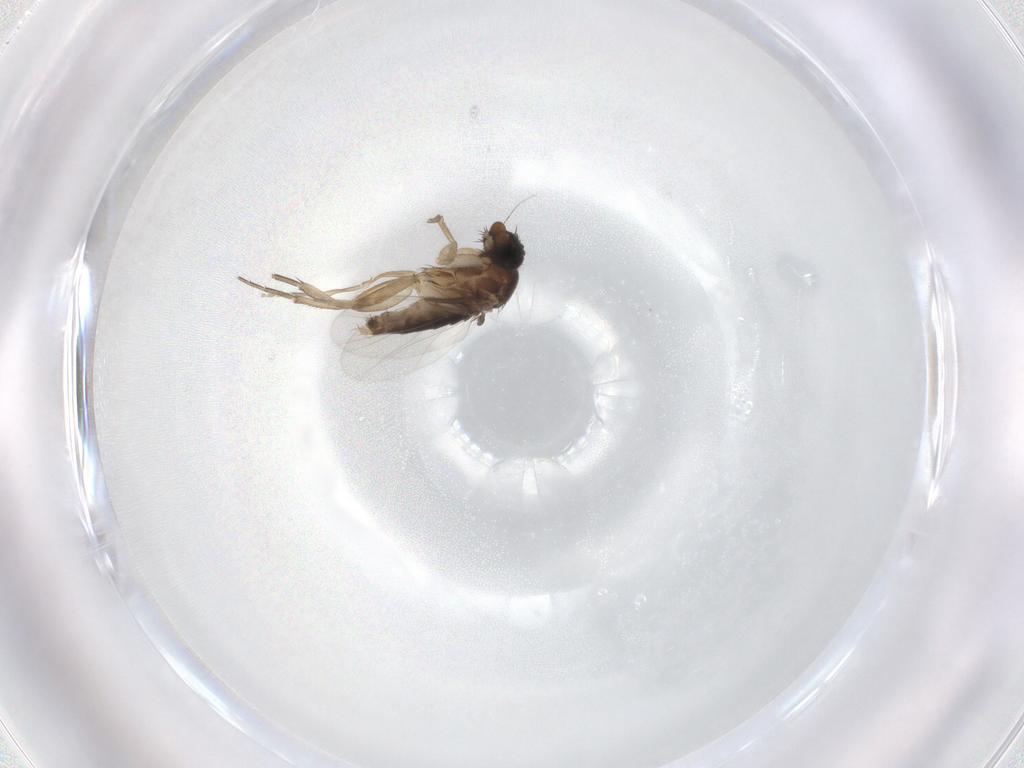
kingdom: Animalia
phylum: Arthropoda
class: Insecta
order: Diptera
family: Phoridae
